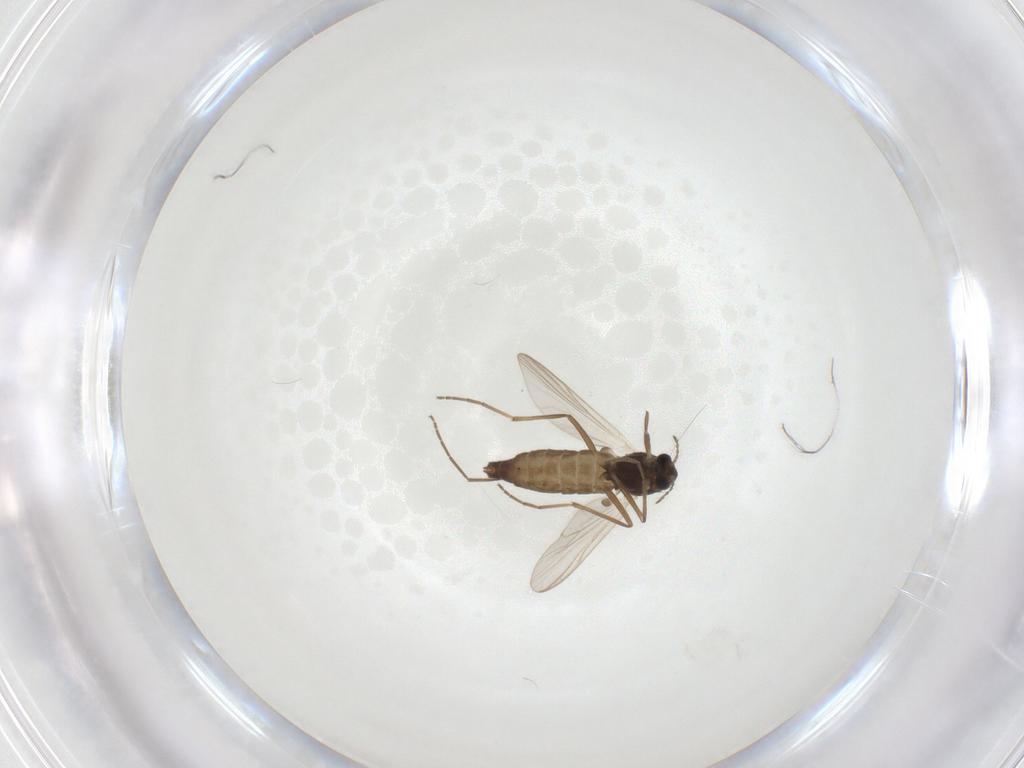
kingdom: Animalia
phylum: Arthropoda
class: Insecta
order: Diptera
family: Chironomidae
